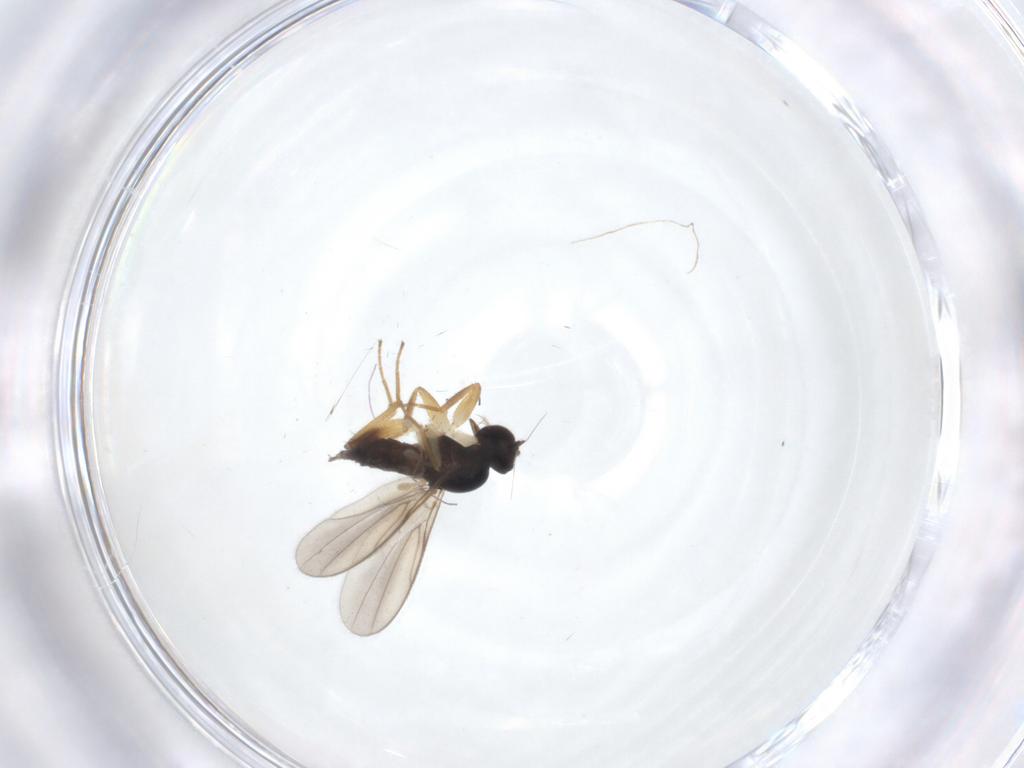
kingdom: Animalia
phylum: Arthropoda
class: Insecta
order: Diptera
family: Hybotidae
